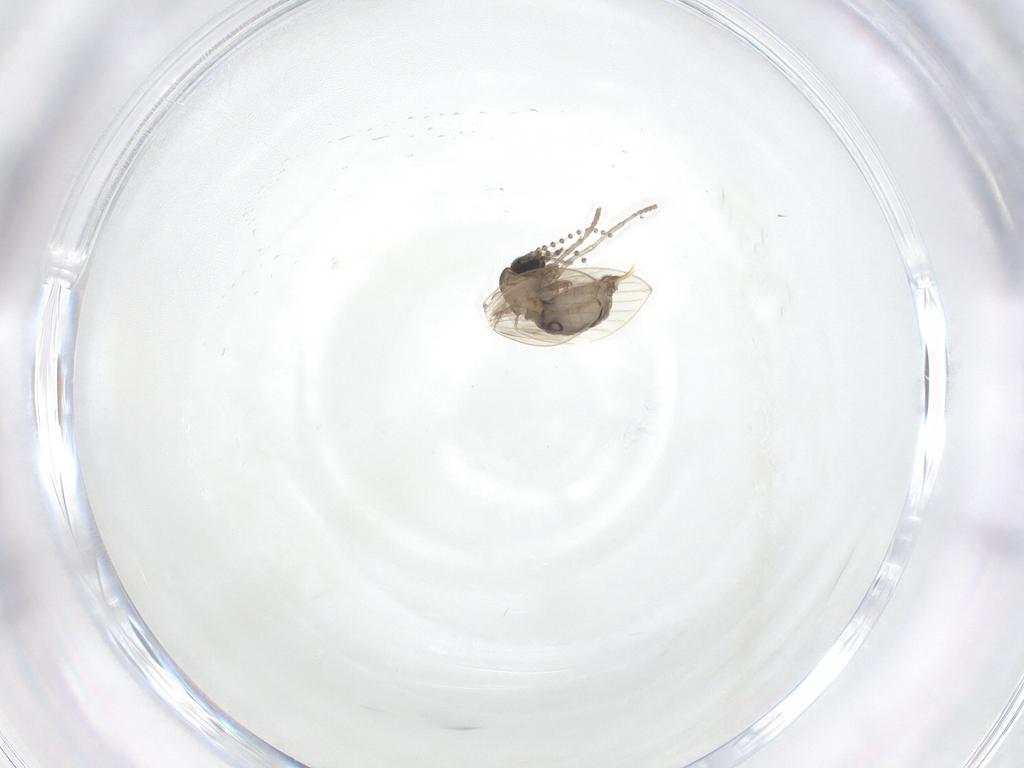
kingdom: Animalia
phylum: Arthropoda
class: Insecta
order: Diptera
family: Psychodidae
